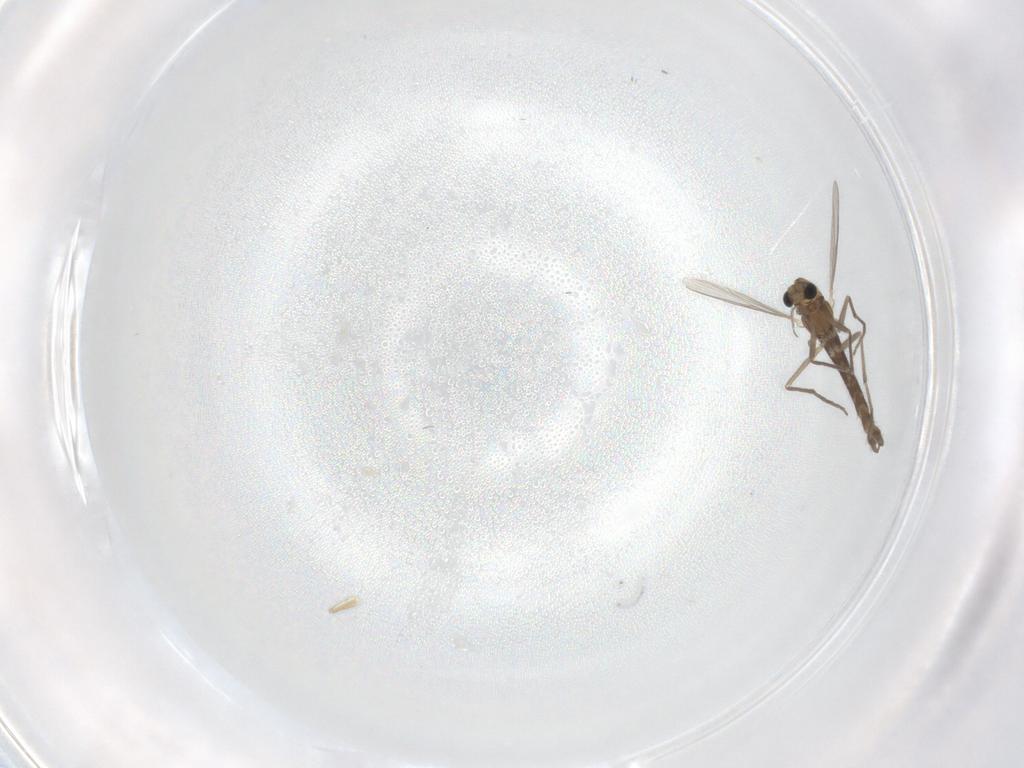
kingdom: Animalia
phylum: Arthropoda
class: Insecta
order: Diptera
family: Chironomidae
